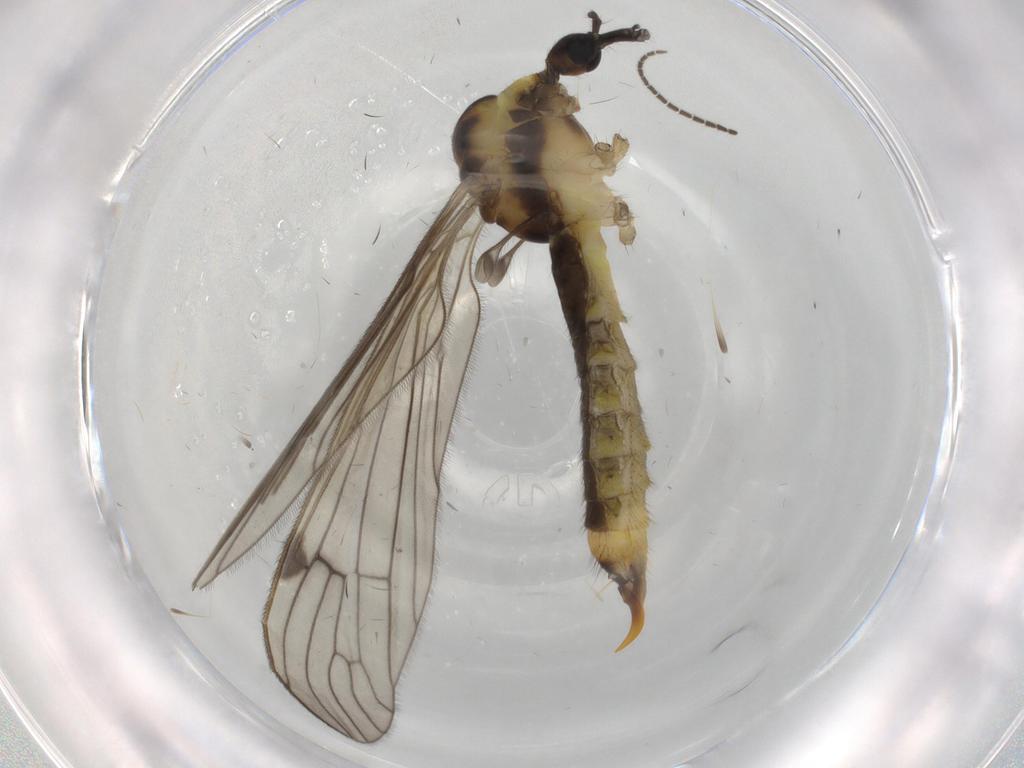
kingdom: Animalia
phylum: Arthropoda
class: Insecta
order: Diptera
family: Limoniidae
